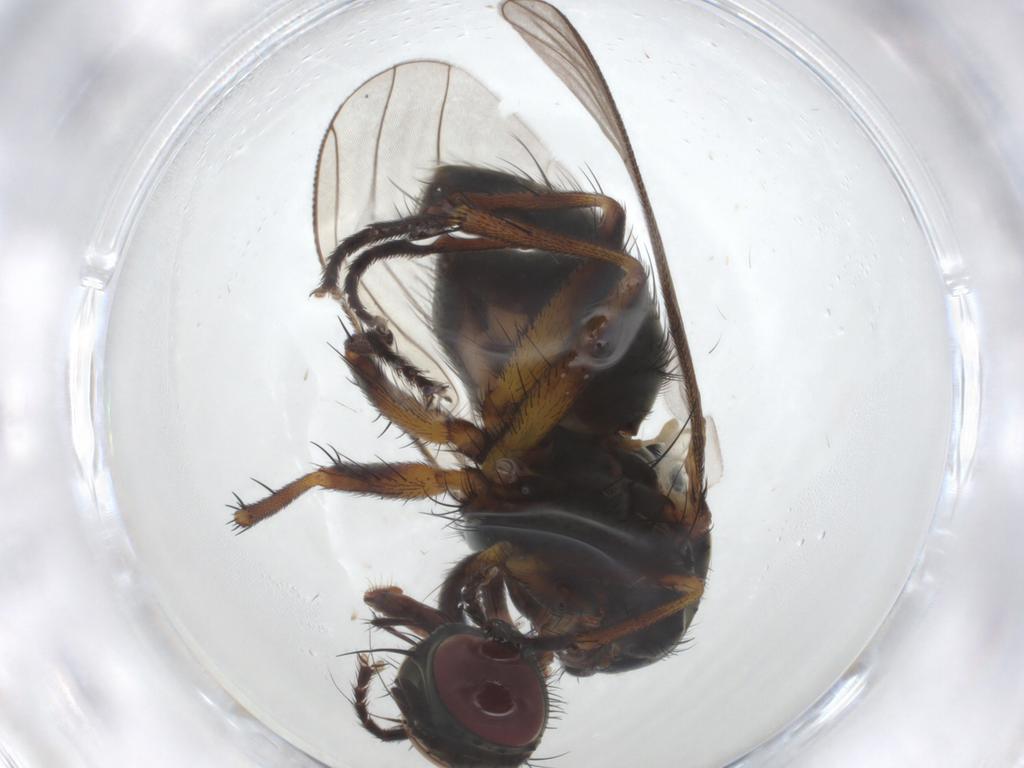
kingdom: Animalia
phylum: Arthropoda
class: Insecta
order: Diptera
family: Muscidae
